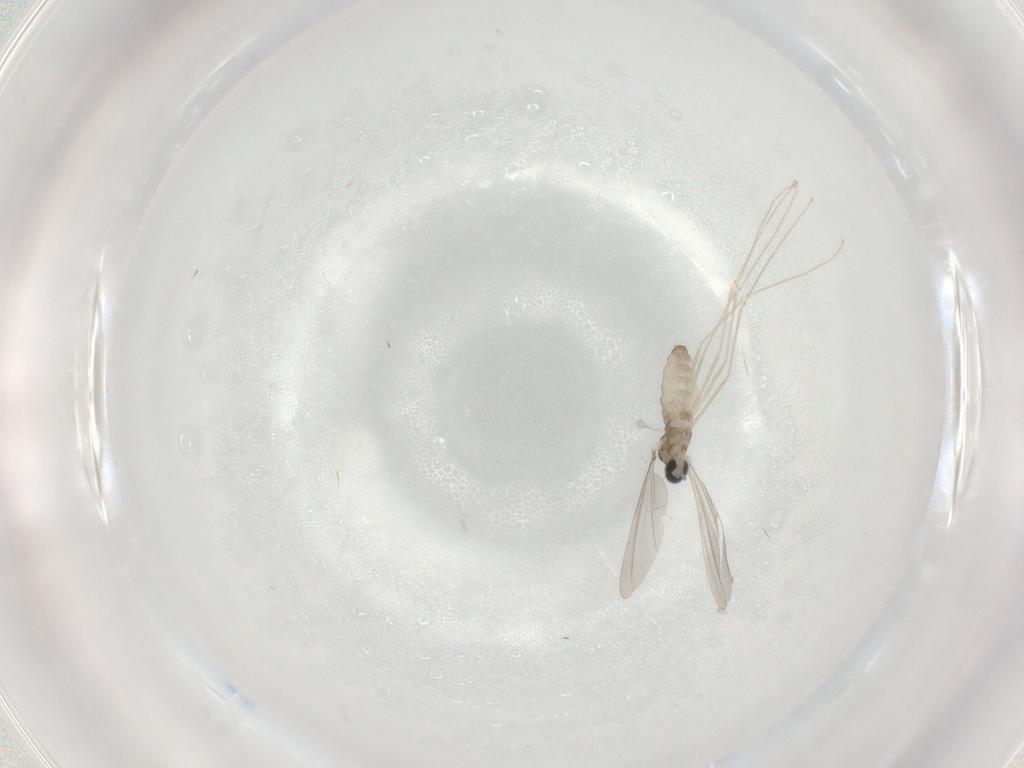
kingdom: Animalia
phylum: Arthropoda
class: Insecta
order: Diptera
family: Cecidomyiidae
